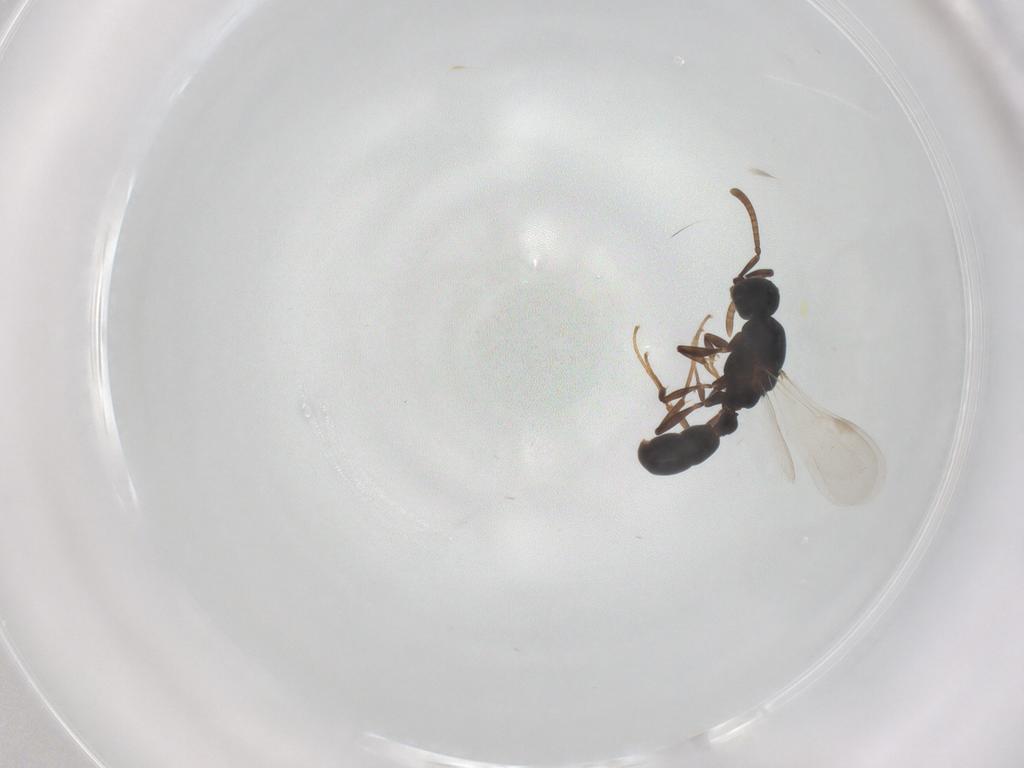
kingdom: Animalia
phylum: Arthropoda
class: Insecta
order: Hymenoptera
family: Formicidae
